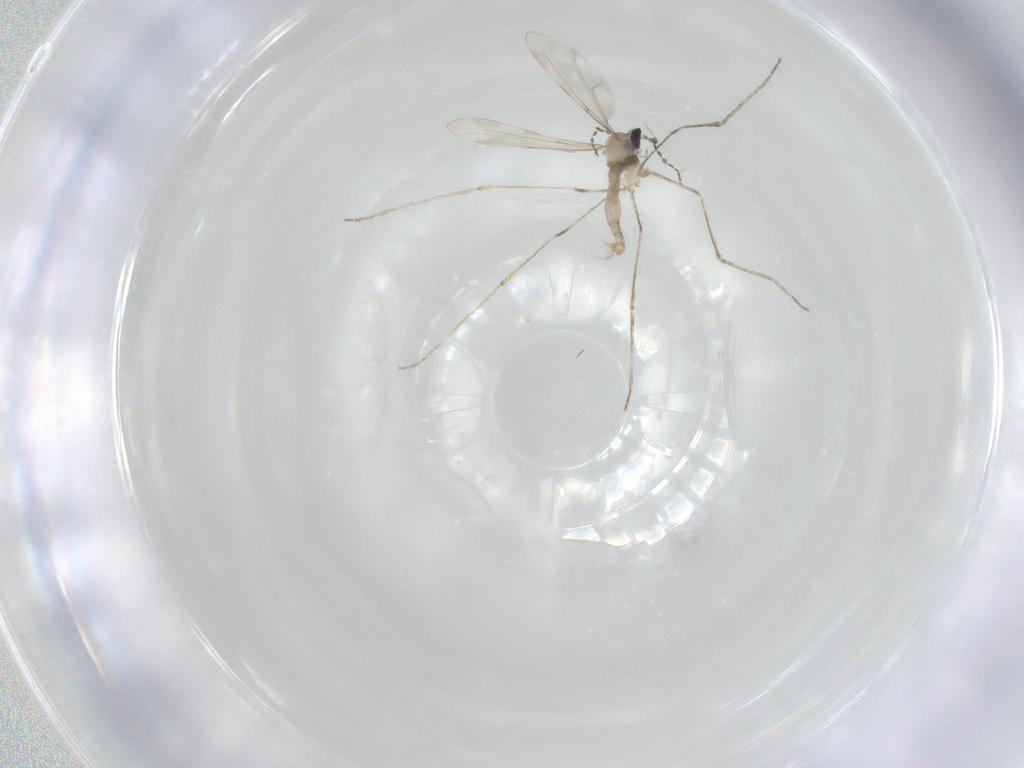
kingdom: Animalia
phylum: Arthropoda
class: Insecta
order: Diptera
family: Cecidomyiidae
